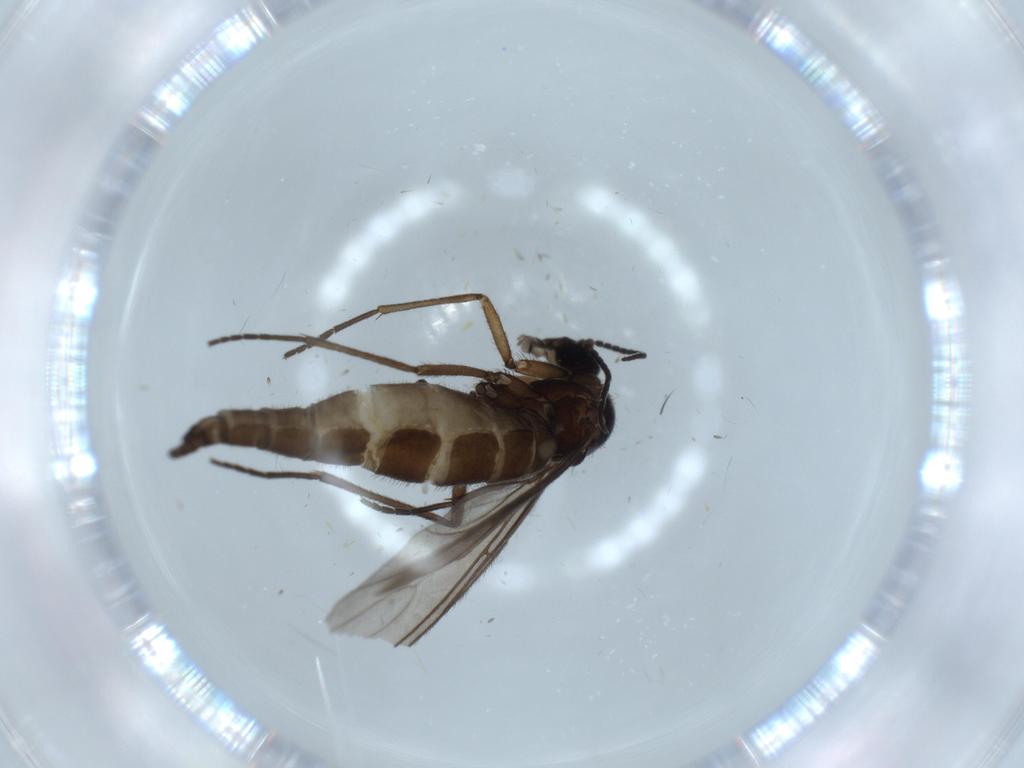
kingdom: Animalia
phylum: Arthropoda
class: Insecta
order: Diptera
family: Sciaridae
